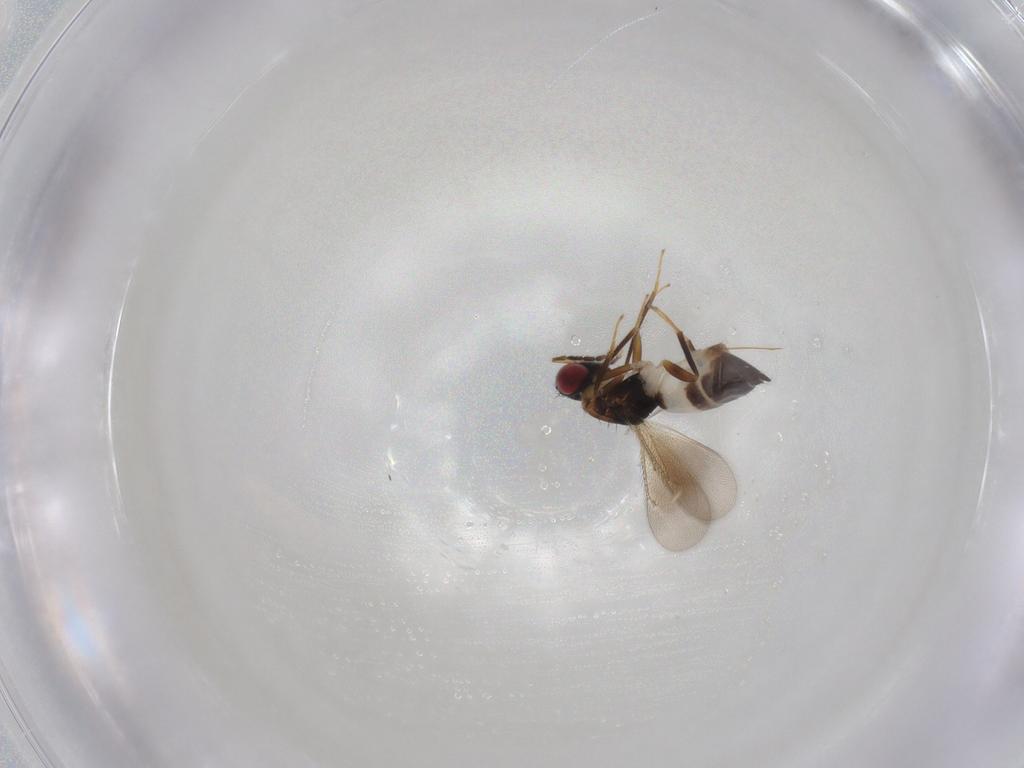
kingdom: Animalia
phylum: Arthropoda
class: Insecta
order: Hymenoptera
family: Eulophidae
